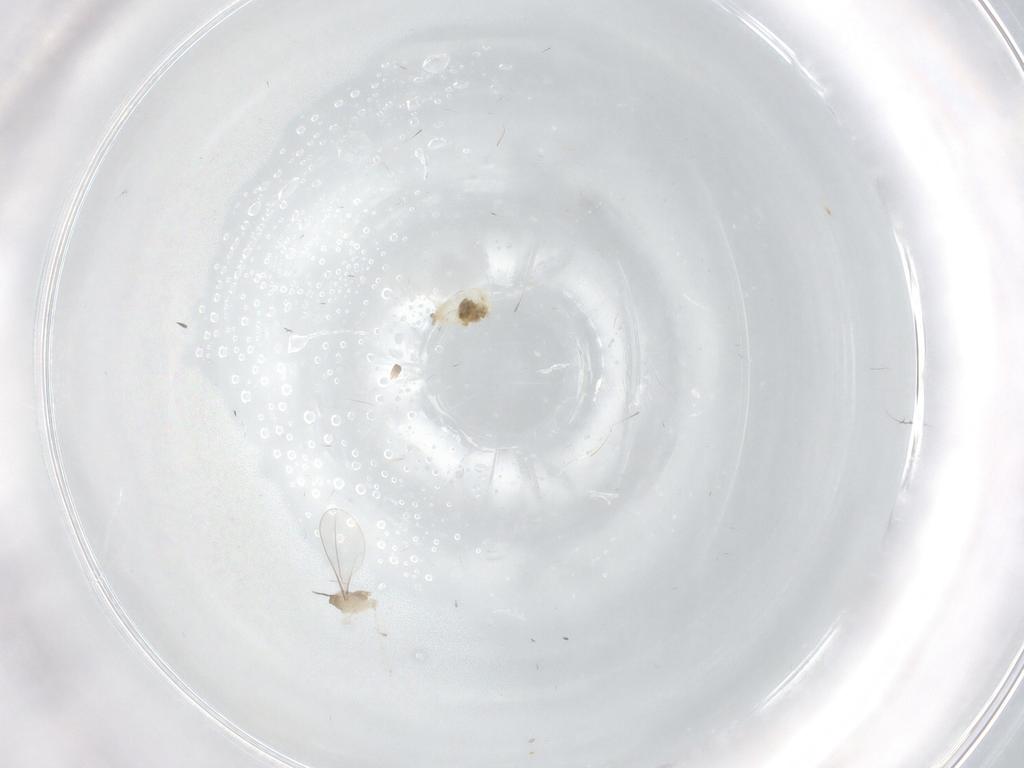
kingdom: Animalia
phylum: Arthropoda
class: Insecta
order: Diptera
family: Cecidomyiidae
